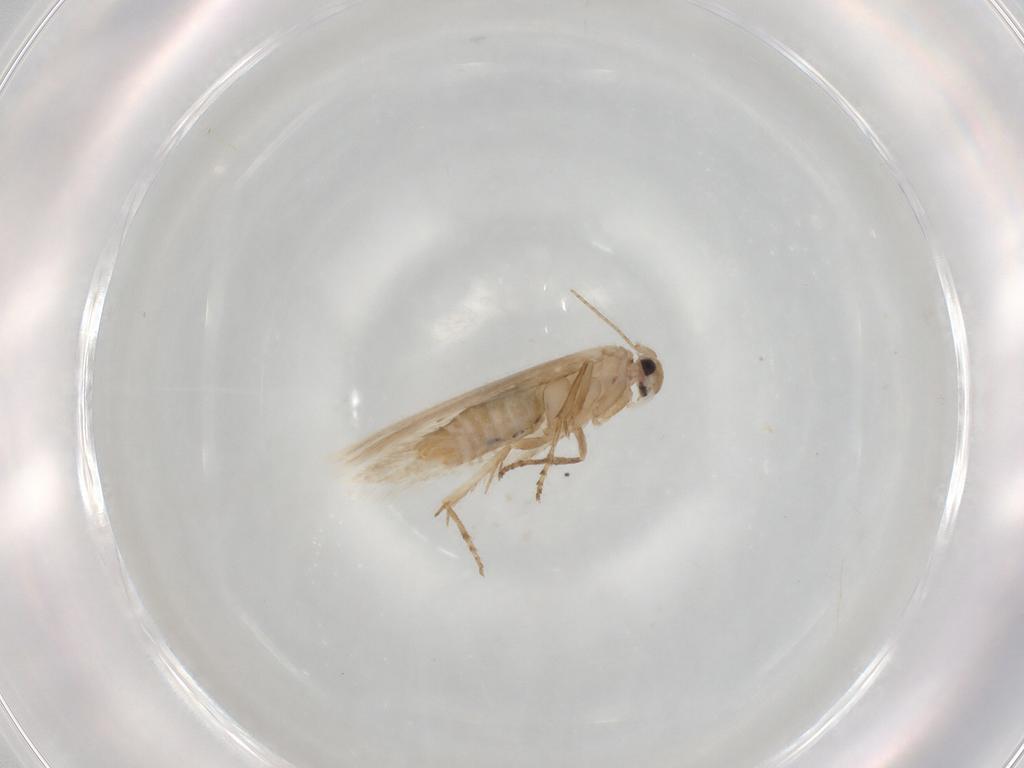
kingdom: Animalia
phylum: Arthropoda
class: Insecta
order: Lepidoptera
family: Bucculatricidae
